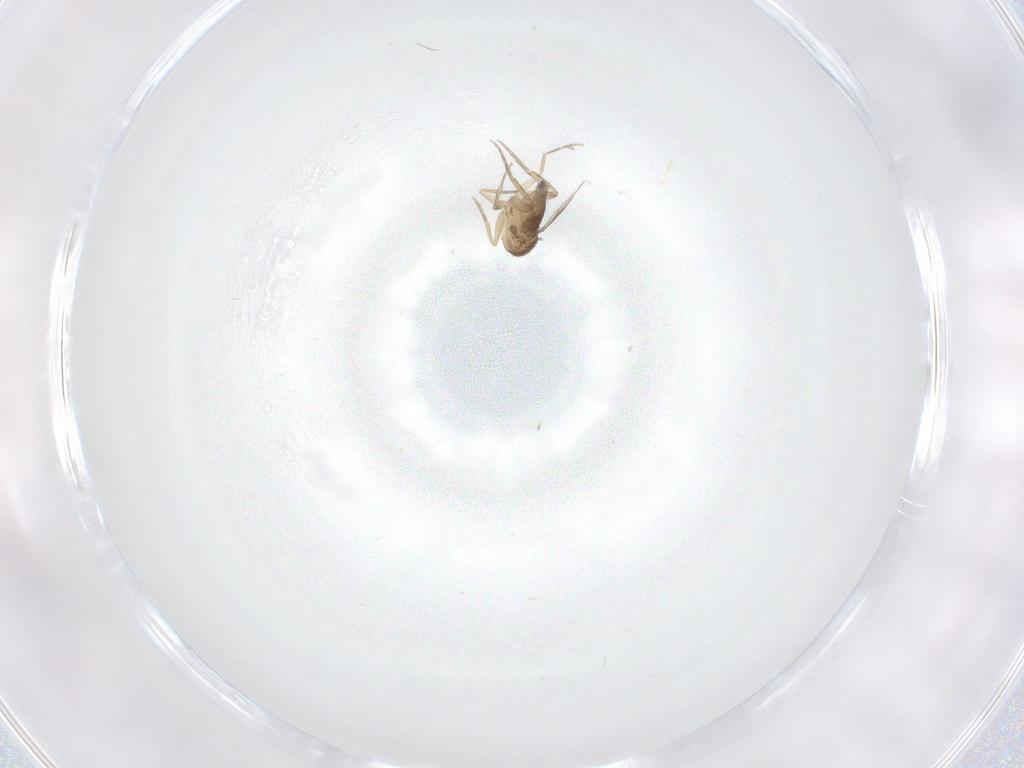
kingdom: Animalia
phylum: Arthropoda
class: Insecta
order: Diptera
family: Phoridae
